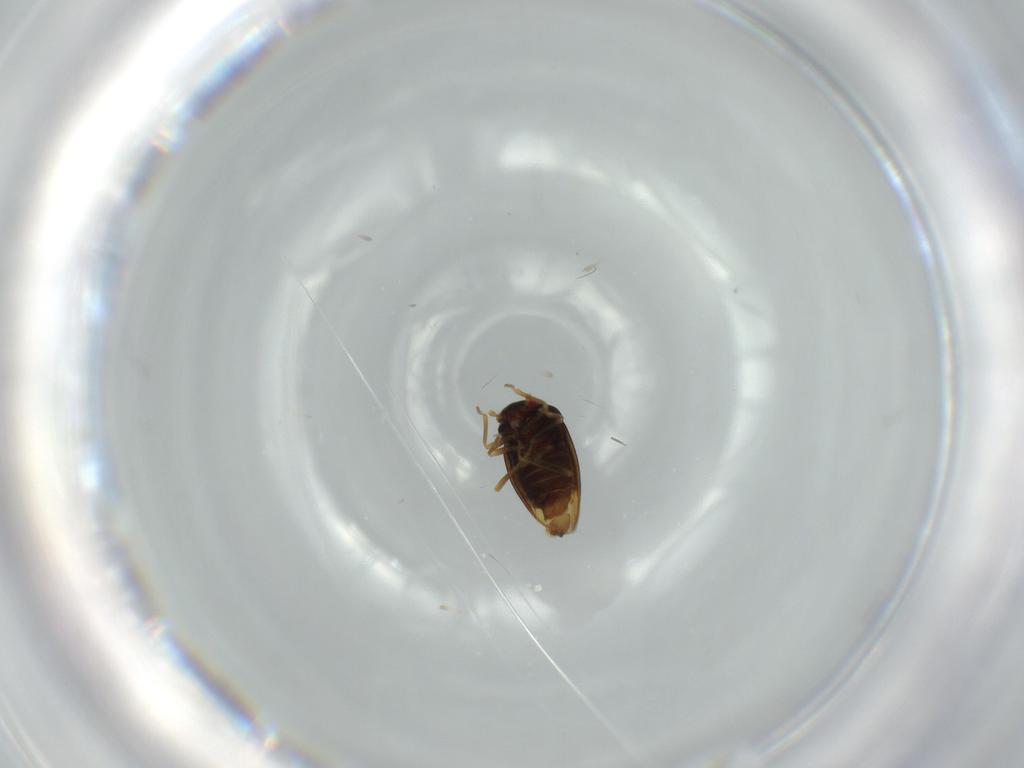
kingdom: Animalia
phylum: Arthropoda
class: Insecta
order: Hemiptera
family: Schizopteridae
